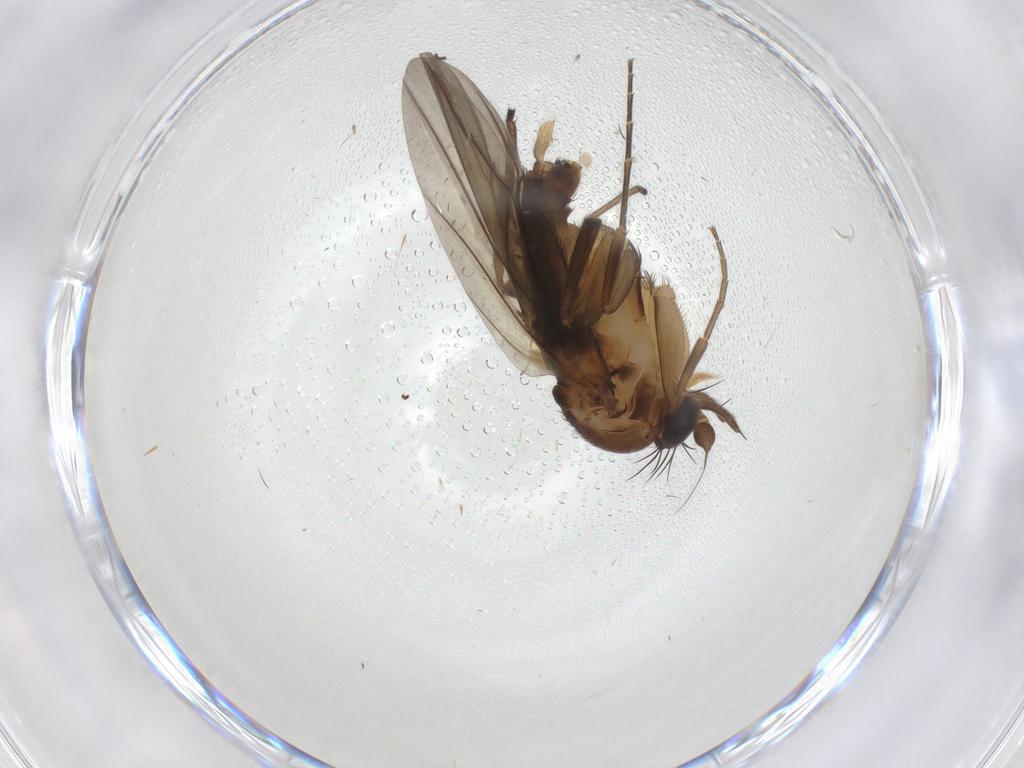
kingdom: Animalia
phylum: Arthropoda
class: Insecta
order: Diptera
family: Phoridae
